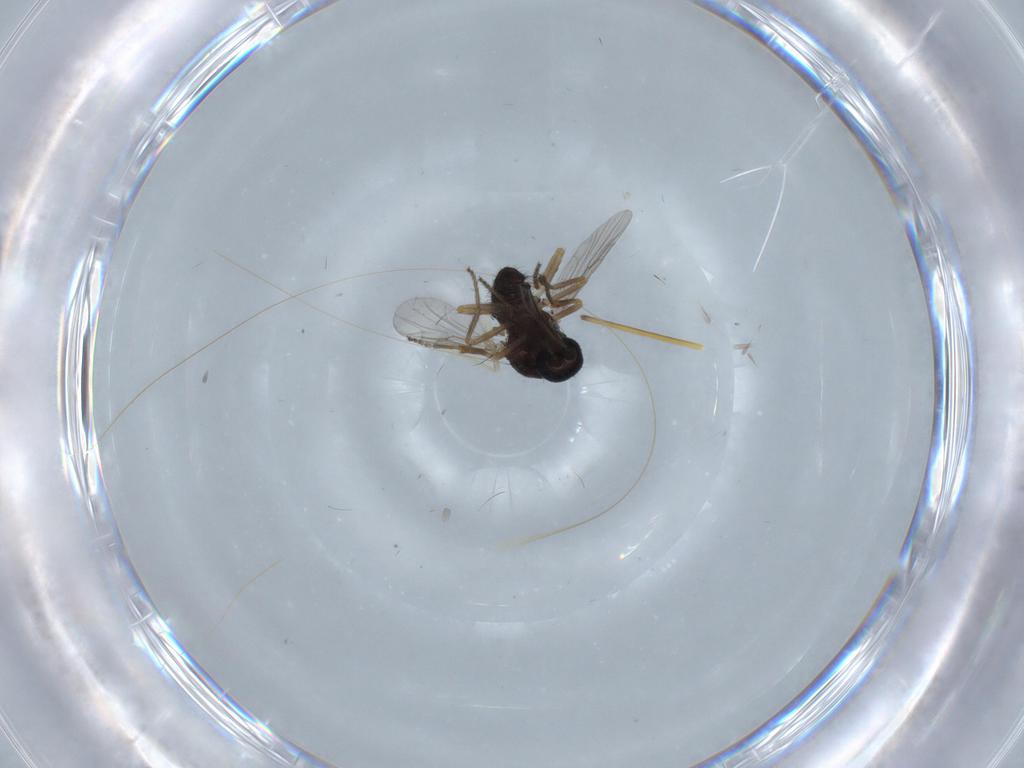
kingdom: Animalia
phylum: Arthropoda
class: Insecta
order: Diptera
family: Ceratopogonidae
